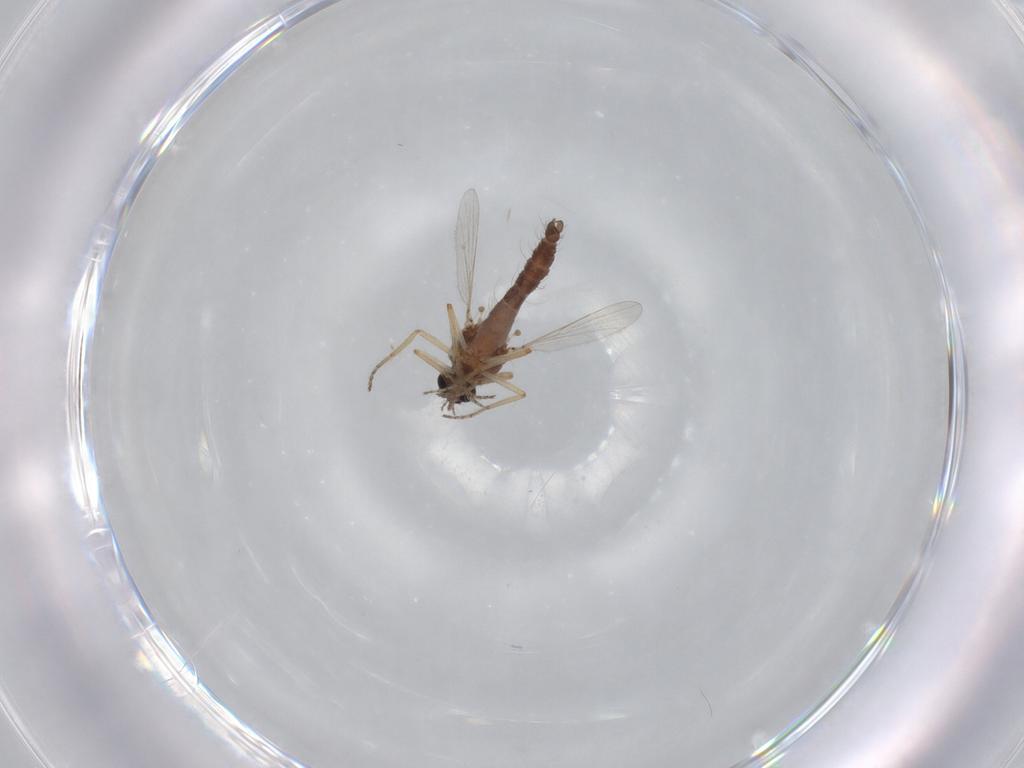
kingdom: Animalia
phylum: Arthropoda
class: Insecta
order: Diptera
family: Ceratopogonidae
